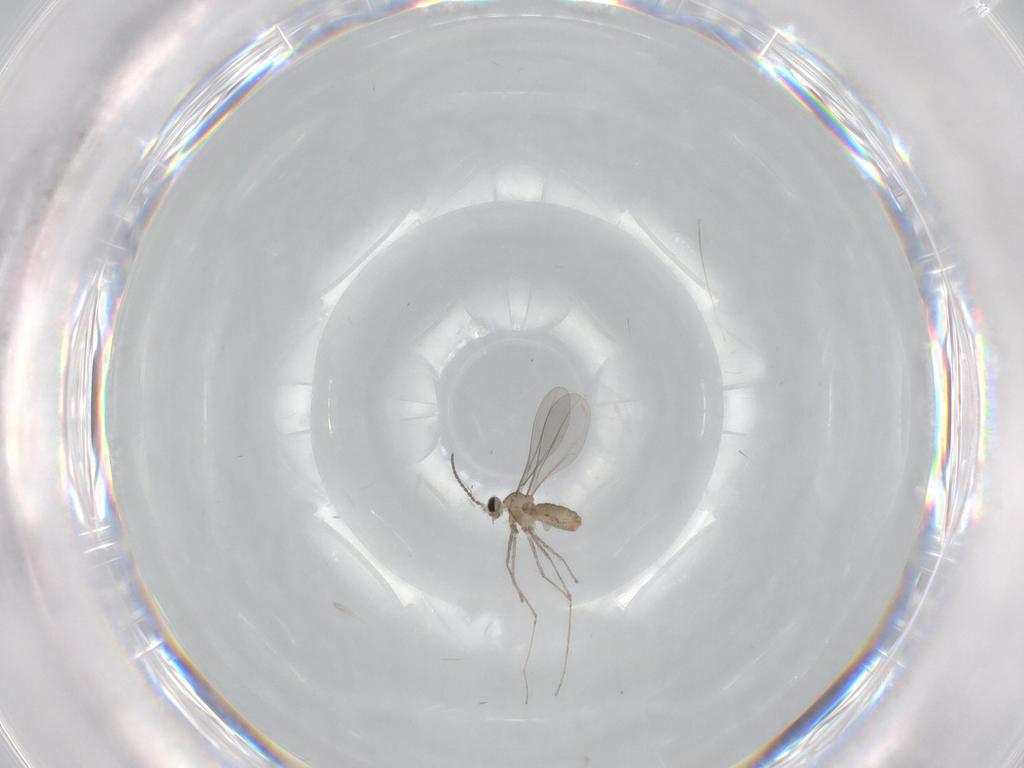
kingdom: Animalia
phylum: Arthropoda
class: Insecta
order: Diptera
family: Cecidomyiidae
